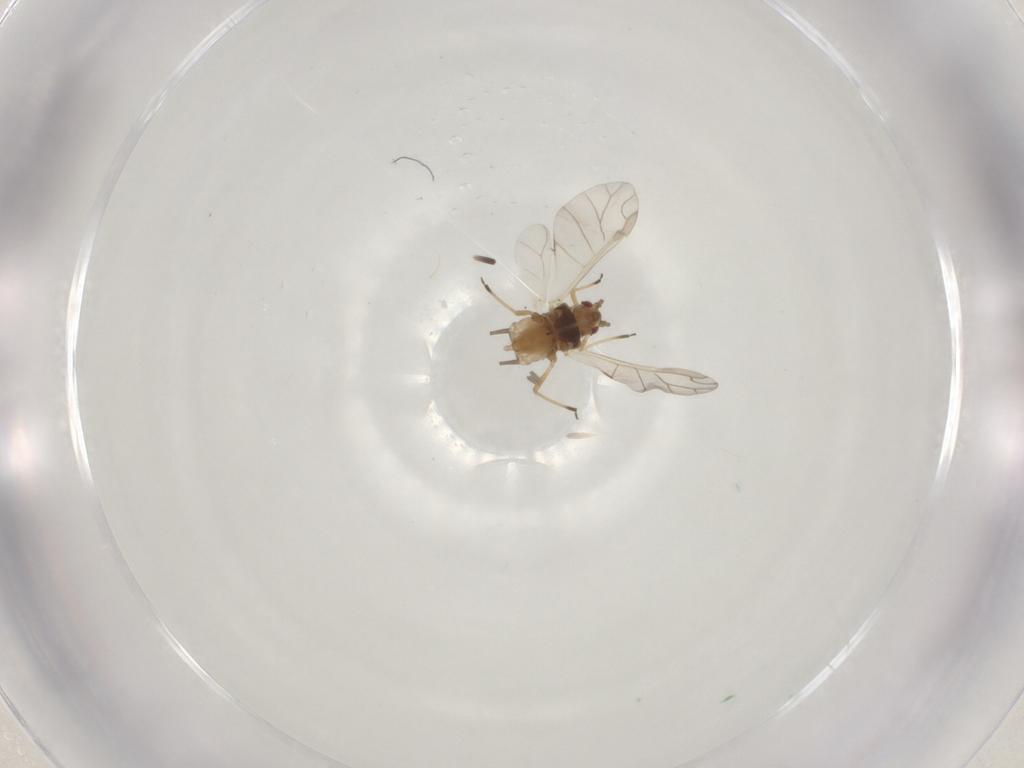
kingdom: Animalia
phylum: Arthropoda
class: Insecta
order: Hemiptera
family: Aphididae
